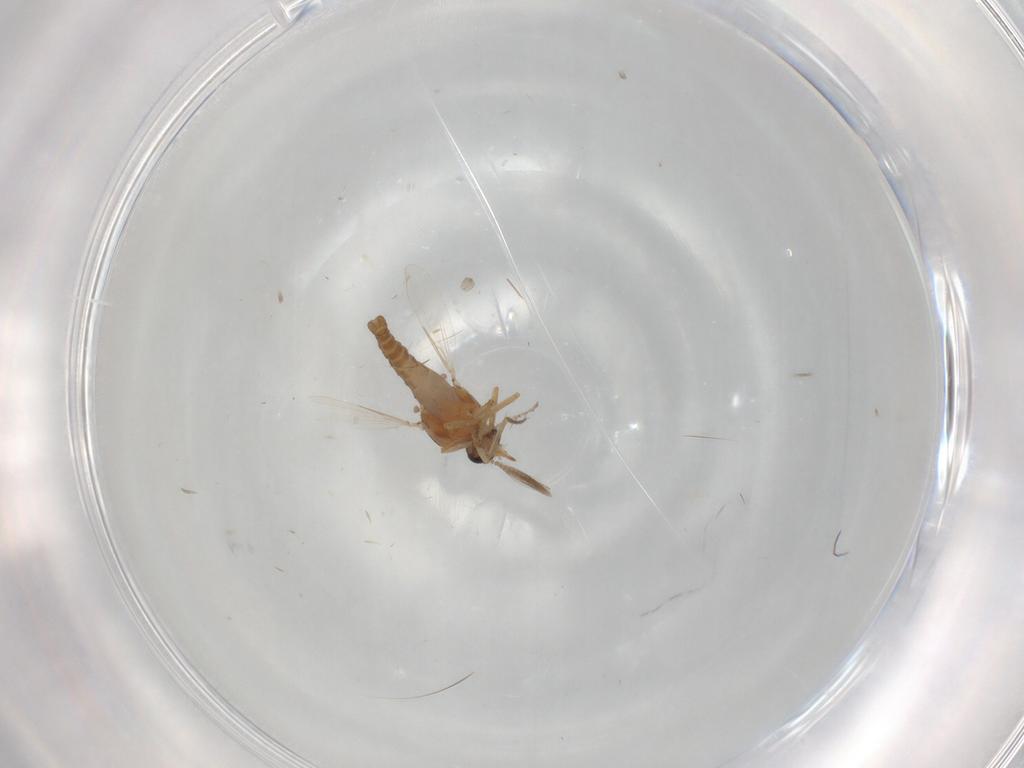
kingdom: Animalia
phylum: Arthropoda
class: Insecta
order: Diptera
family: Ceratopogonidae
